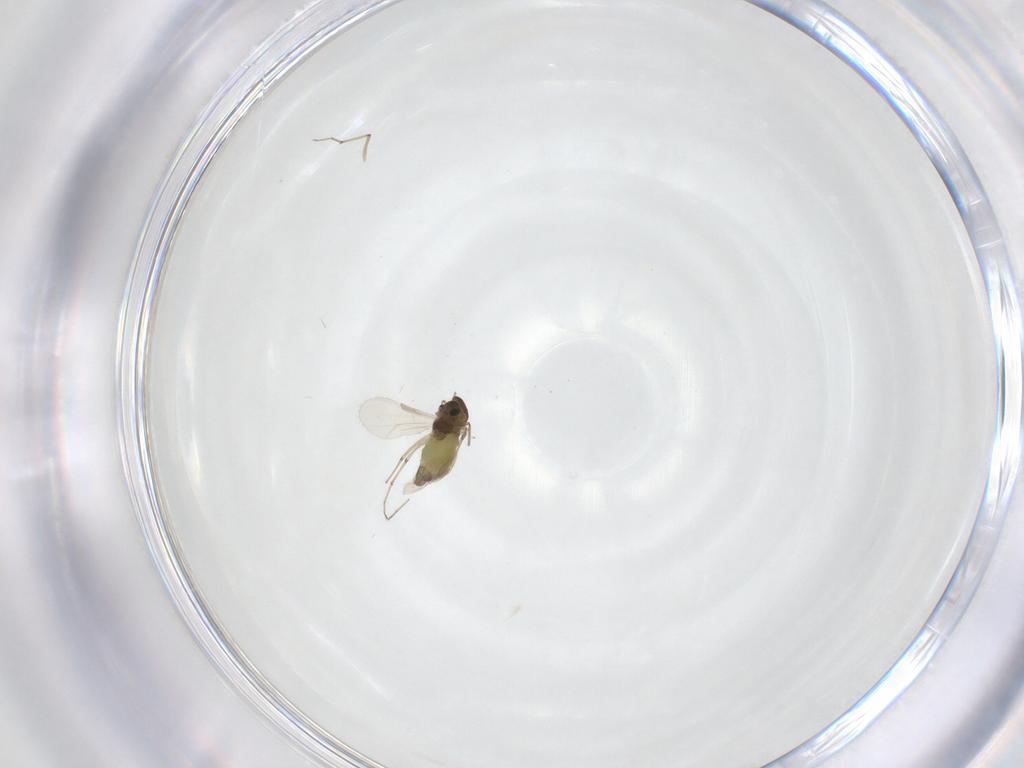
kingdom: Animalia
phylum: Arthropoda
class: Insecta
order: Diptera
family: Chironomidae
